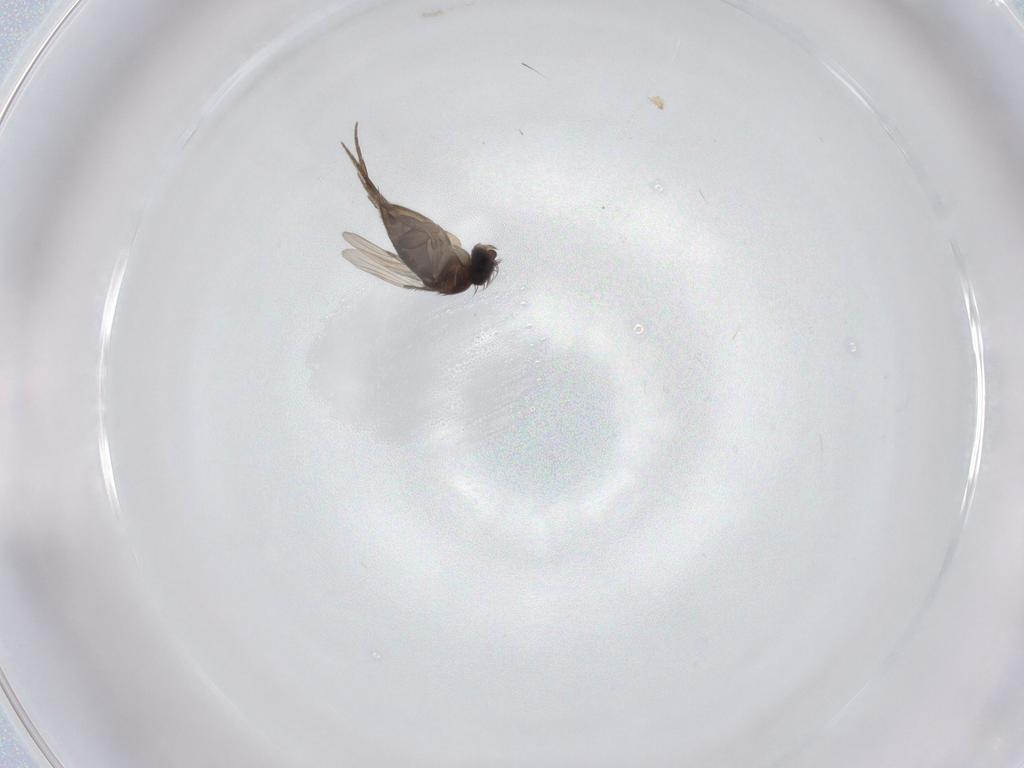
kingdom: Animalia
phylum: Arthropoda
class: Insecta
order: Diptera
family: Phoridae
